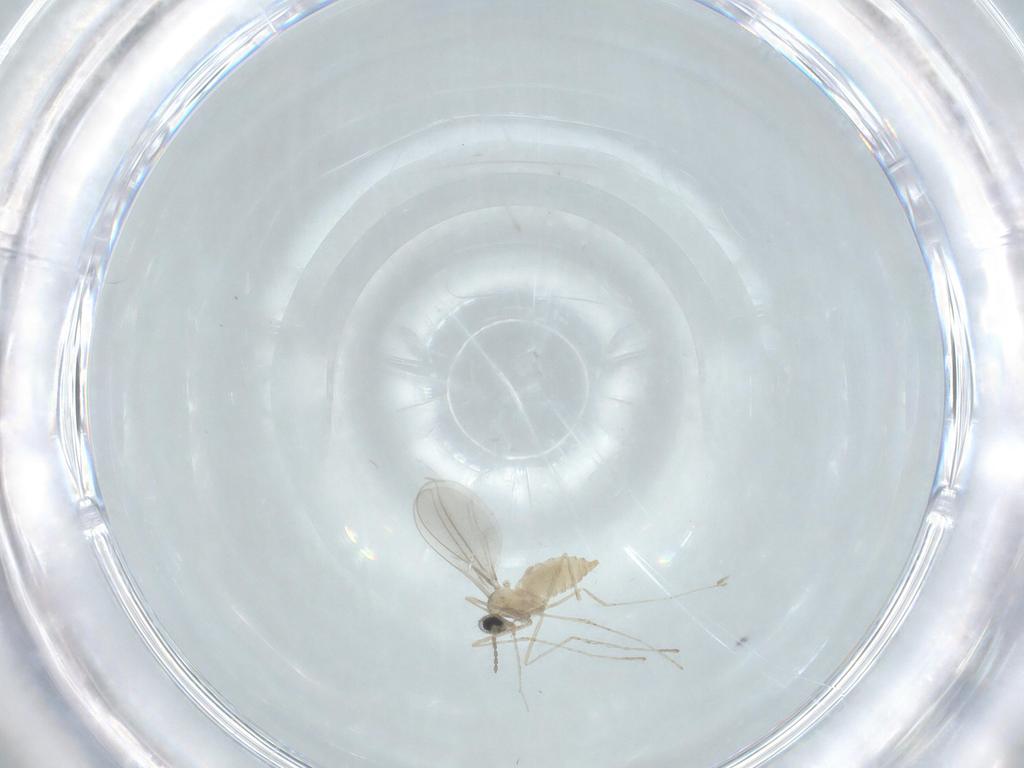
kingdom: Animalia
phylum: Arthropoda
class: Insecta
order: Diptera
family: Cecidomyiidae
